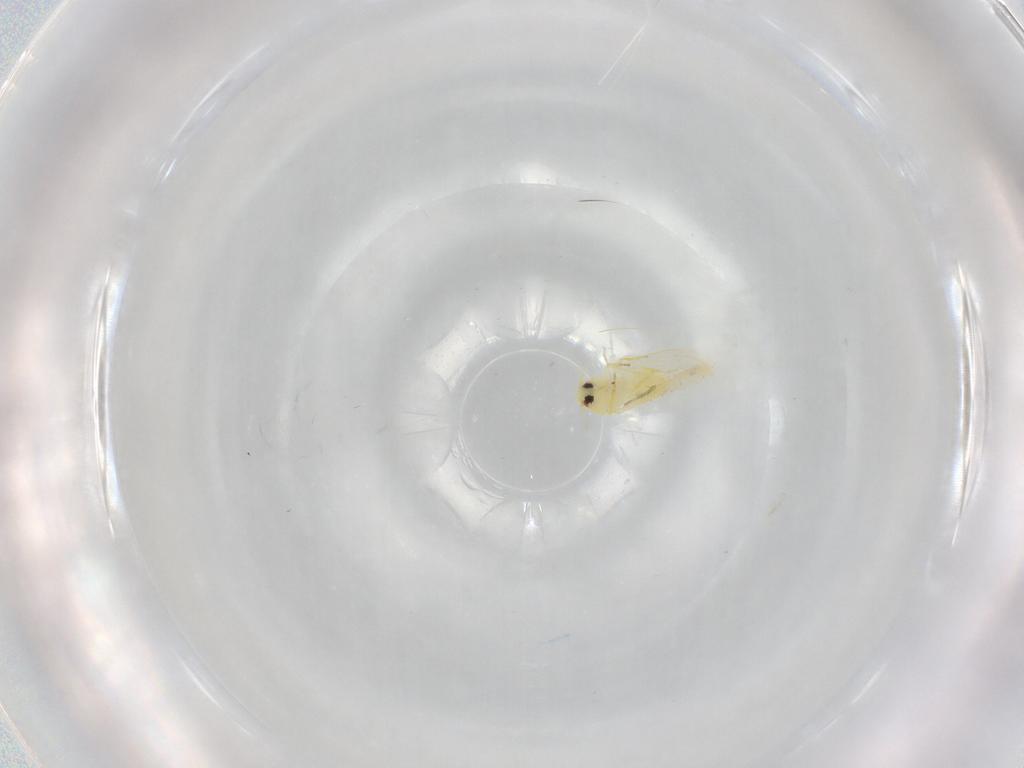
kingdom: Animalia
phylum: Arthropoda
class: Insecta
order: Hemiptera
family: Aleyrodidae
